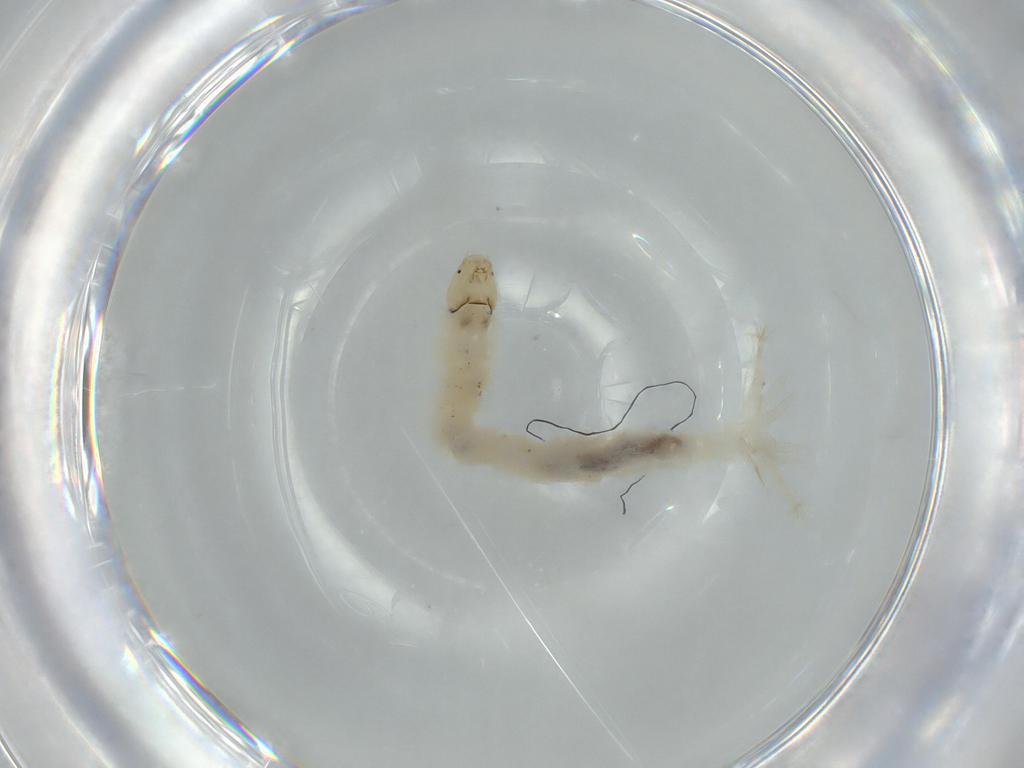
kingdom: Animalia
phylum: Arthropoda
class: Insecta
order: Diptera
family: Chironomidae
